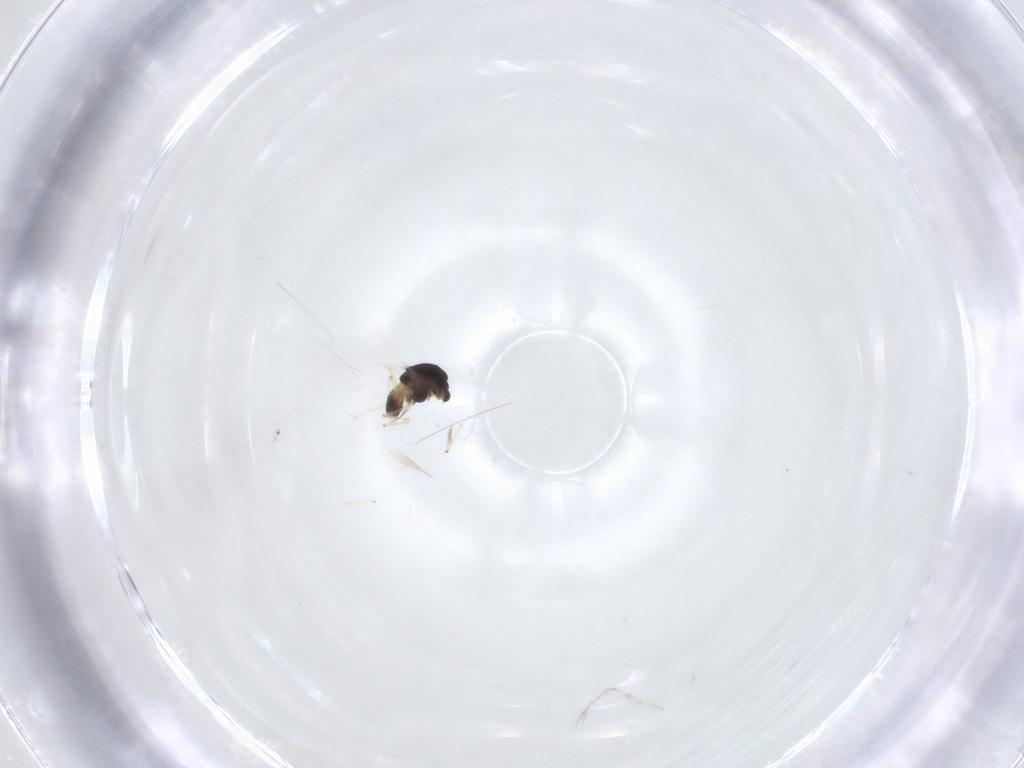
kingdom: Animalia
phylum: Arthropoda
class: Insecta
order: Diptera
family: Chironomidae
